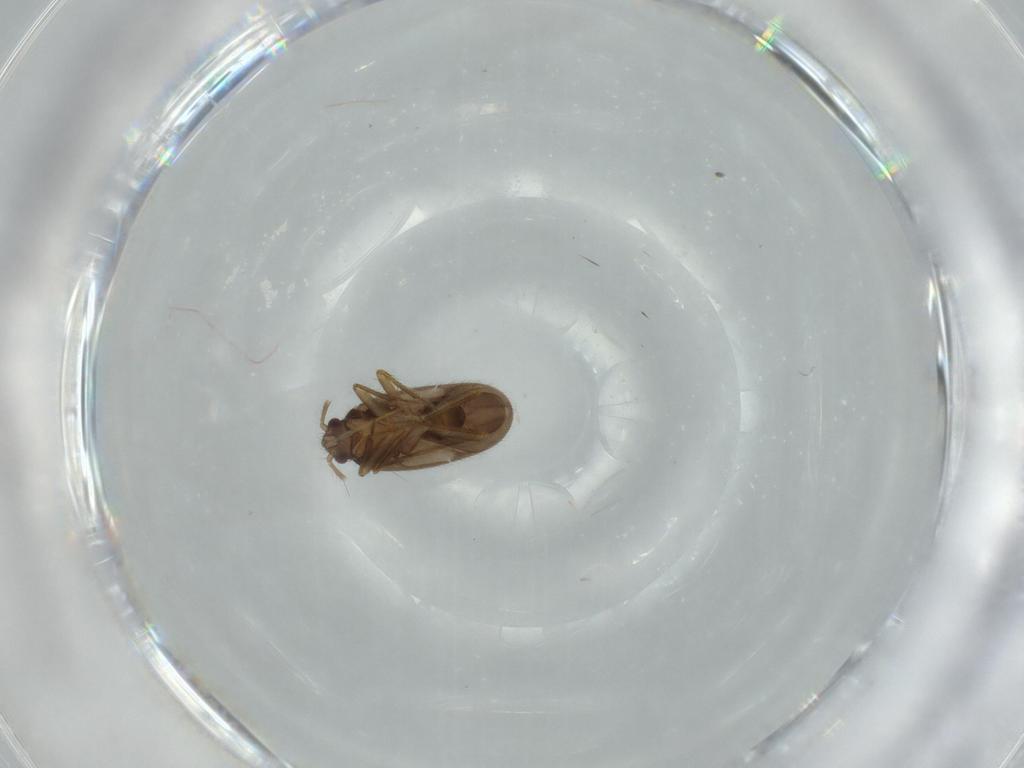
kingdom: Animalia
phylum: Arthropoda
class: Insecta
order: Hemiptera
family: Ceratocombidae
